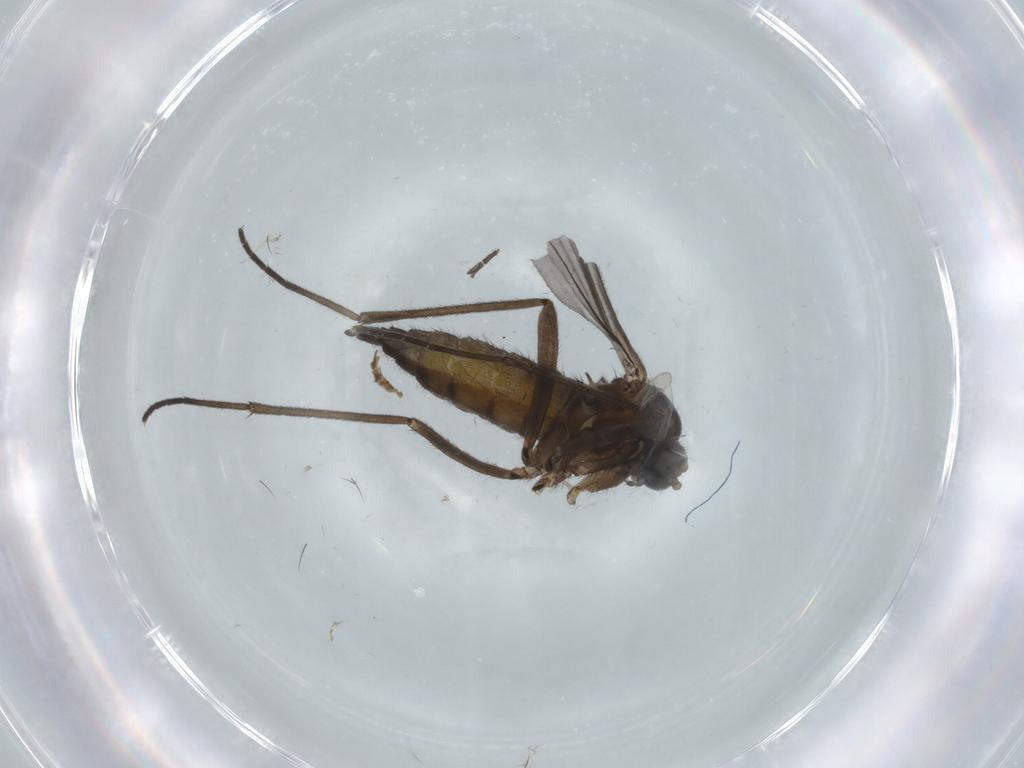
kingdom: Animalia
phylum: Arthropoda
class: Insecta
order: Diptera
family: Sciaridae
